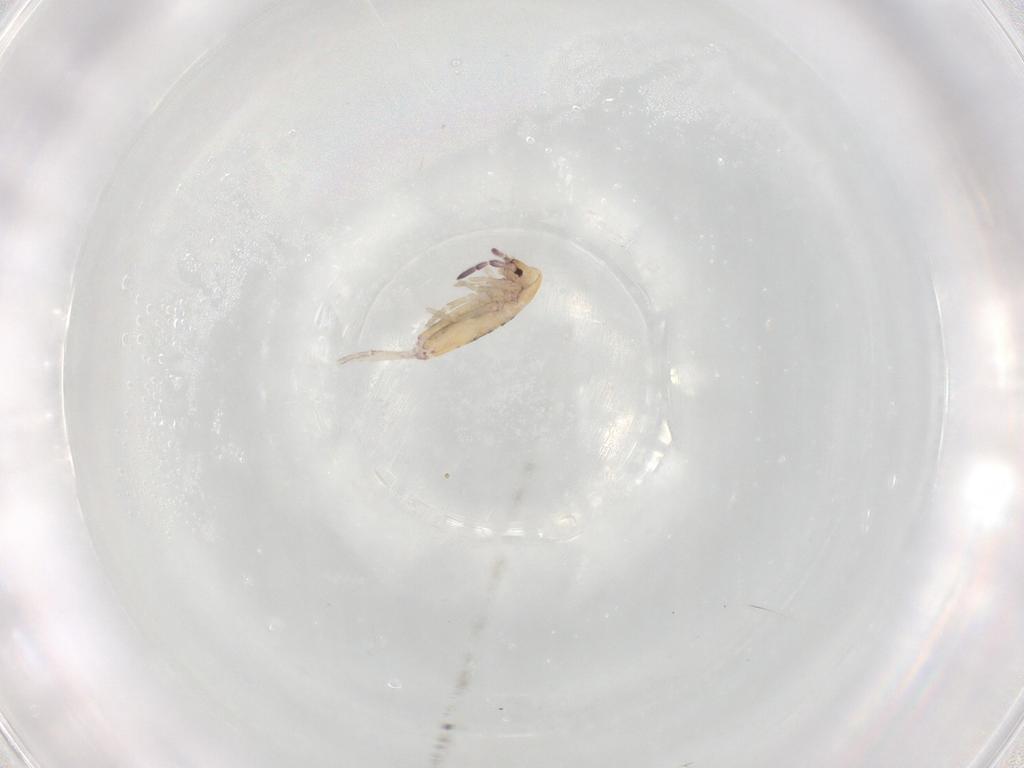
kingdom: Animalia
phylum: Arthropoda
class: Collembola
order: Entomobryomorpha
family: Entomobryidae
